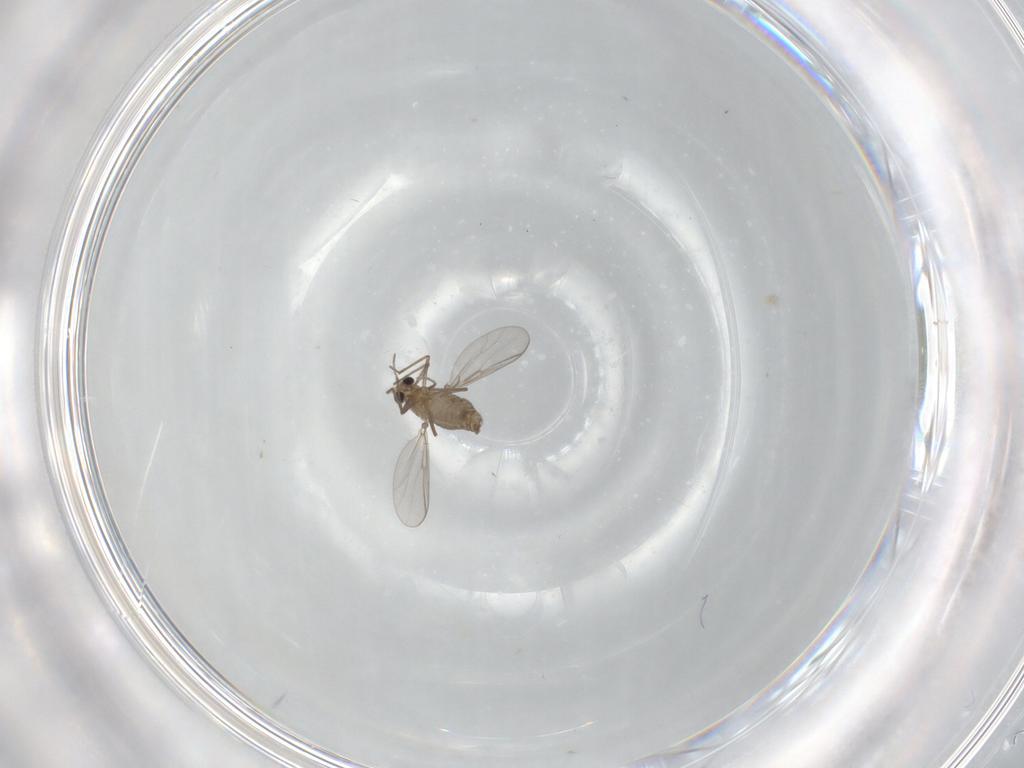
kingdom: Animalia
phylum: Arthropoda
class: Insecta
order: Diptera
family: Chironomidae
